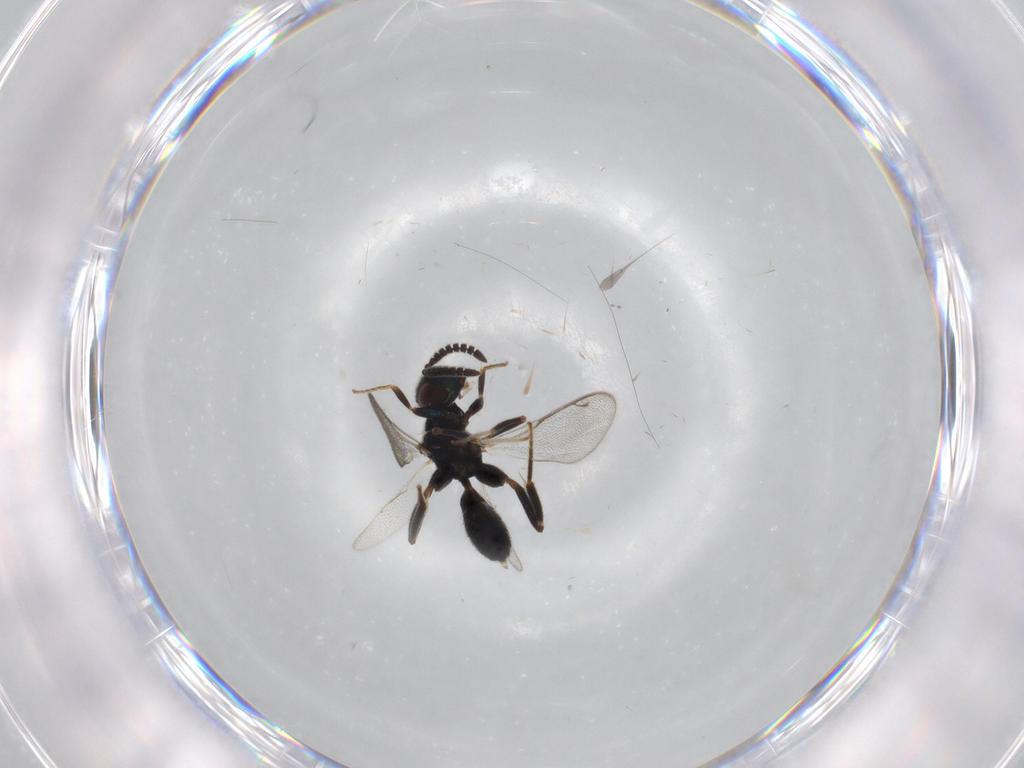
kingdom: Animalia
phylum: Arthropoda
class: Insecta
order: Hymenoptera
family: Cleonyminae
